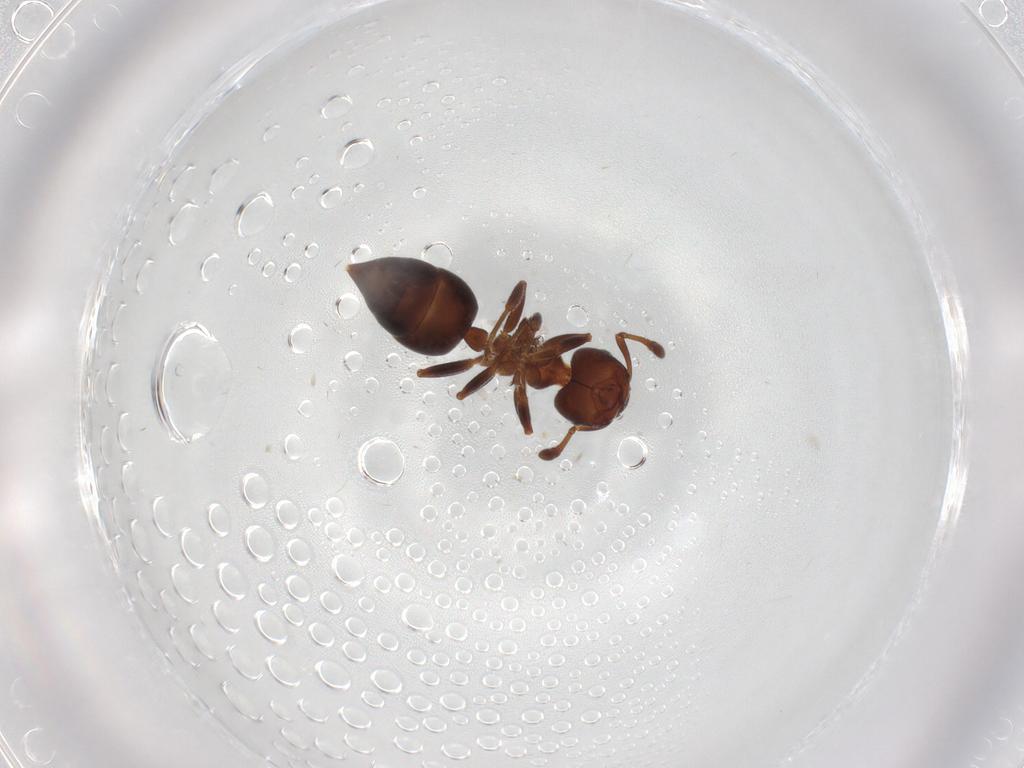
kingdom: Animalia
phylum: Arthropoda
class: Insecta
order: Hymenoptera
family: Formicidae
